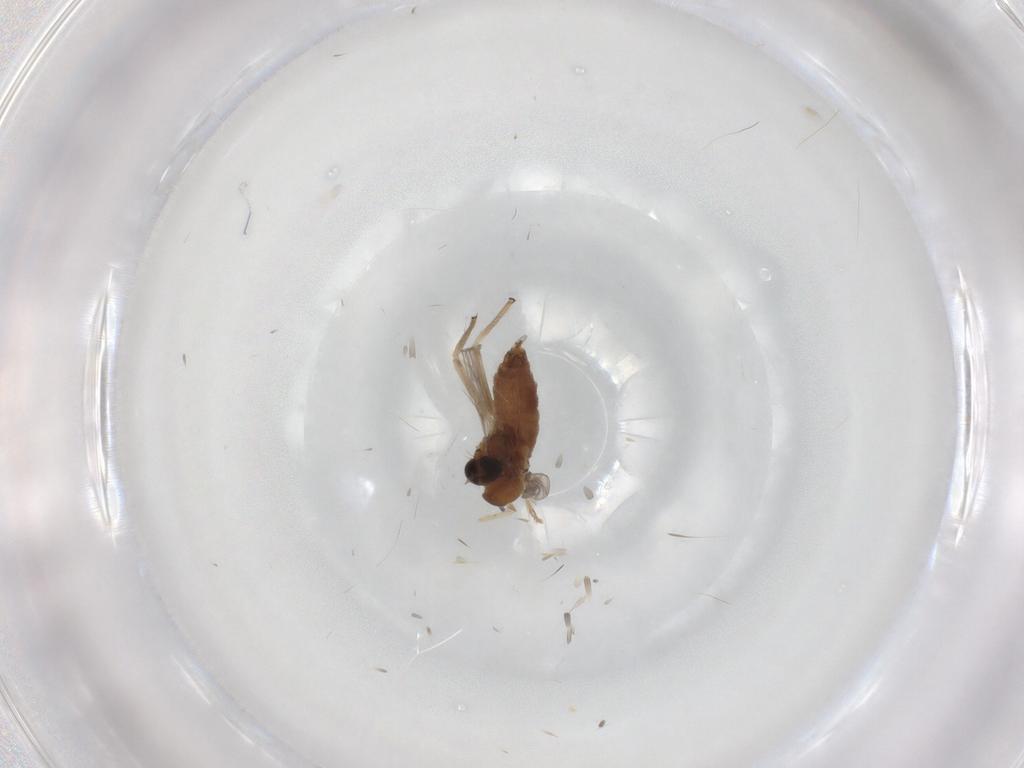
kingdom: Animalia
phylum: Arthropoda
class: Insecta
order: Diptera
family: Chironomidae
